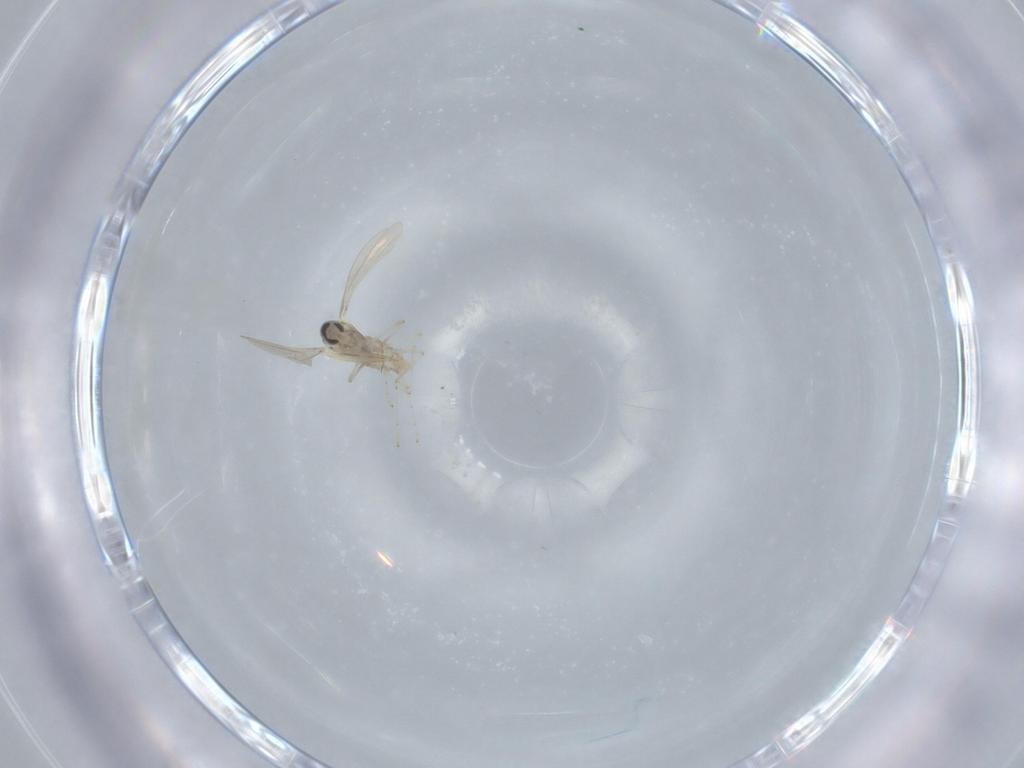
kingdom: Animalia
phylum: Arthropoda
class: Insecta
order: Diptera
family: Cecidomyiidae
